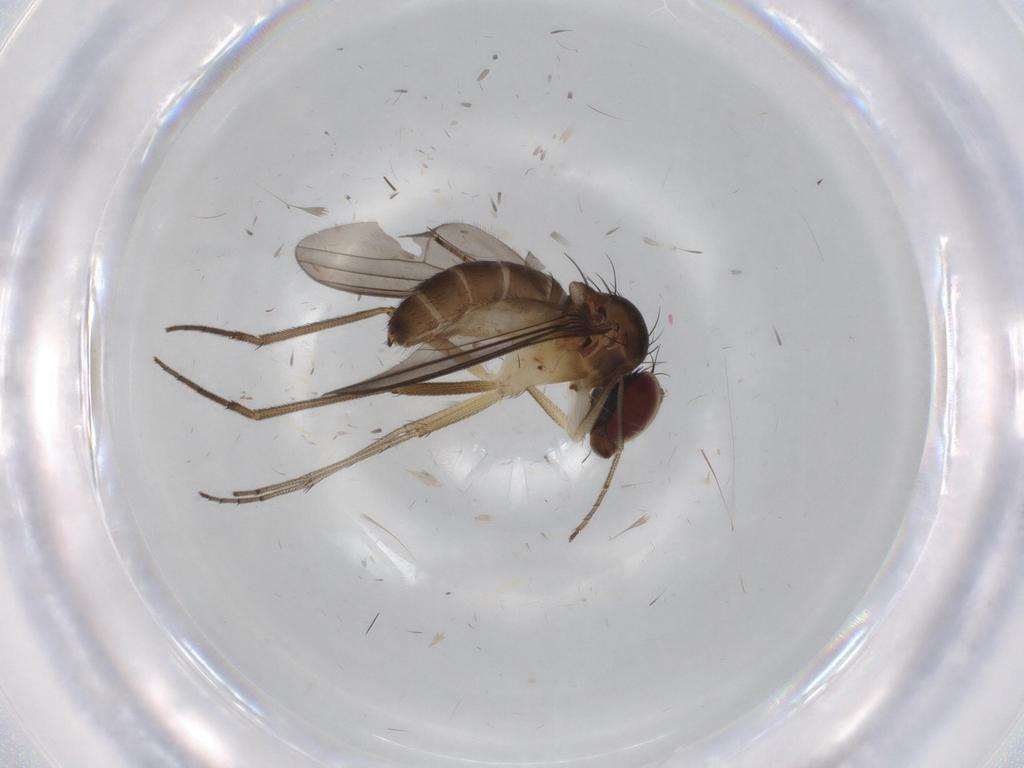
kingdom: Animalia
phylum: Arthropoda
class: Insecta
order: Diptera
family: Dolichopodidae
